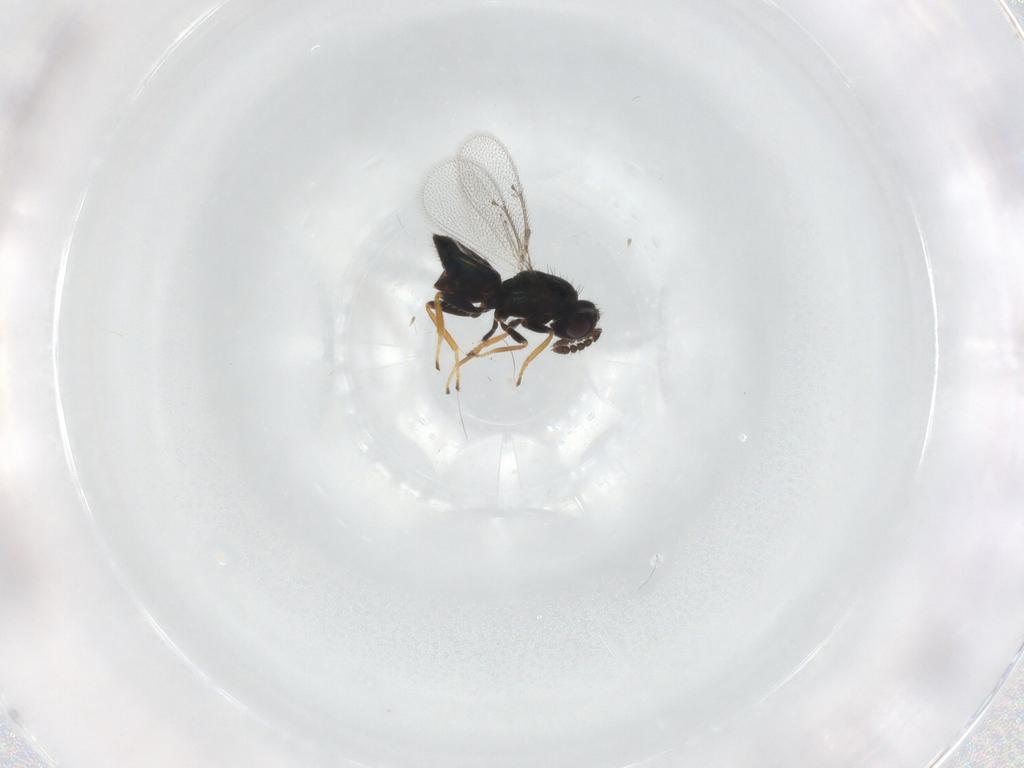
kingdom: Animalia
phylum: Arthropoda
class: Insecta
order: Hymenoptera
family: Eulophidae
